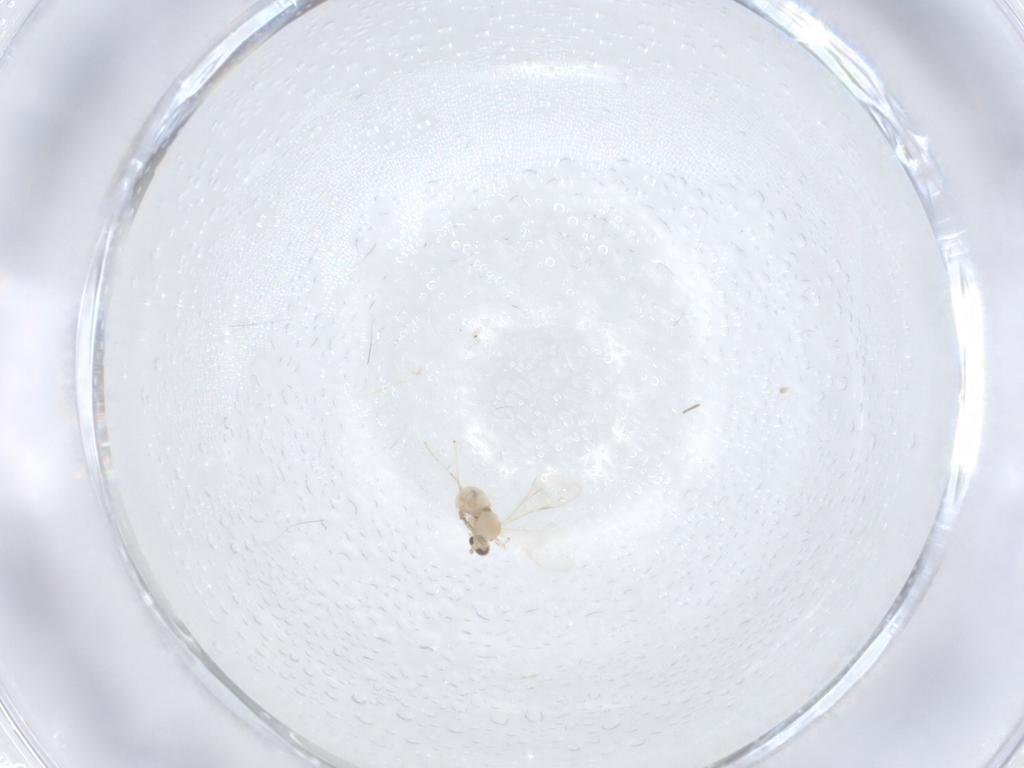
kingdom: Animalia
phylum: Arthropoda
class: Insecta
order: Diptera
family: Cecidomyiidae
